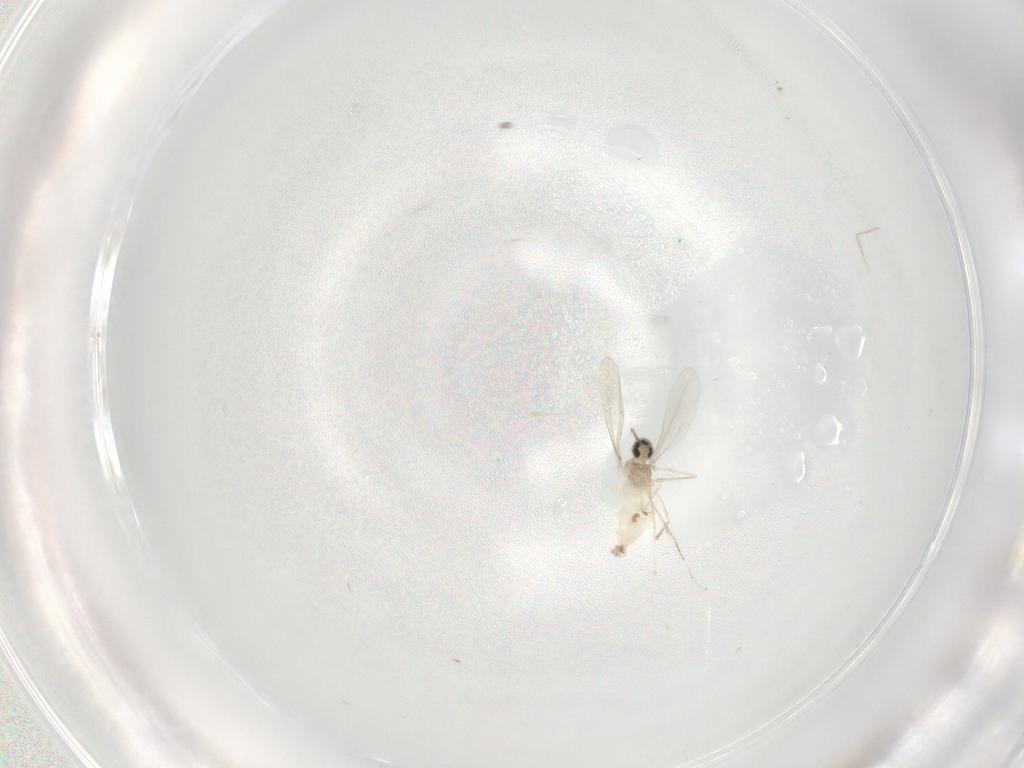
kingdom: Animalia
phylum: Arthropoda
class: Insecta
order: Diptera
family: Cecidomyiidae
